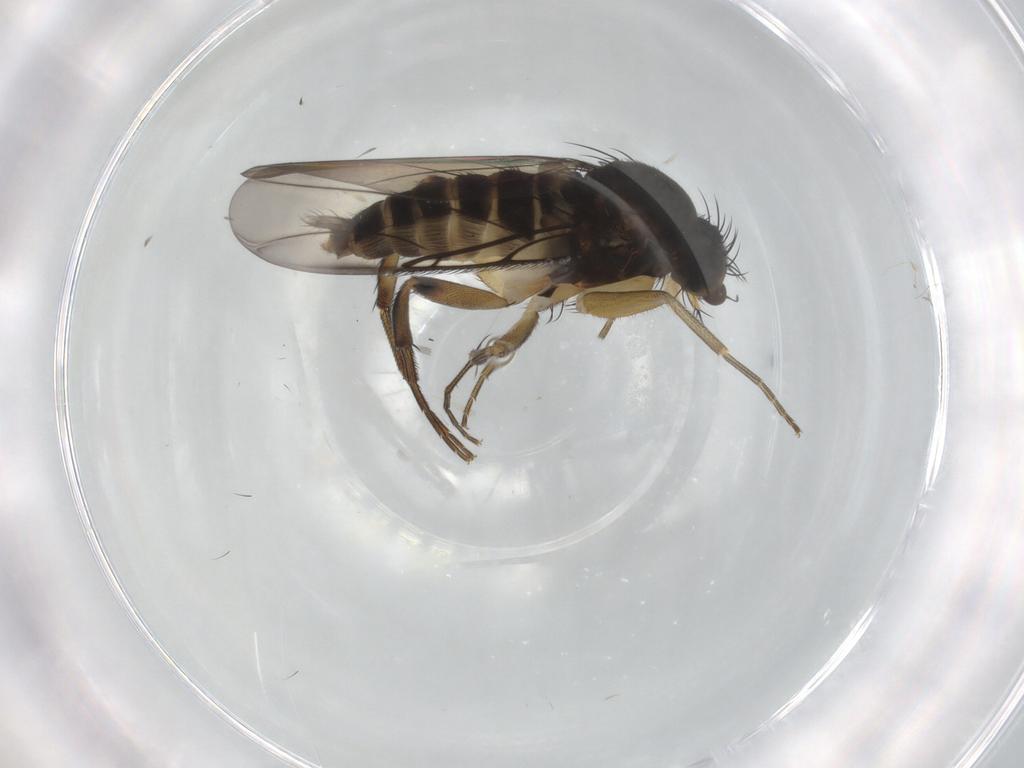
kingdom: Animalia
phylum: Arthropoda
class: Insecta
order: Diptera
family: Phoridae
